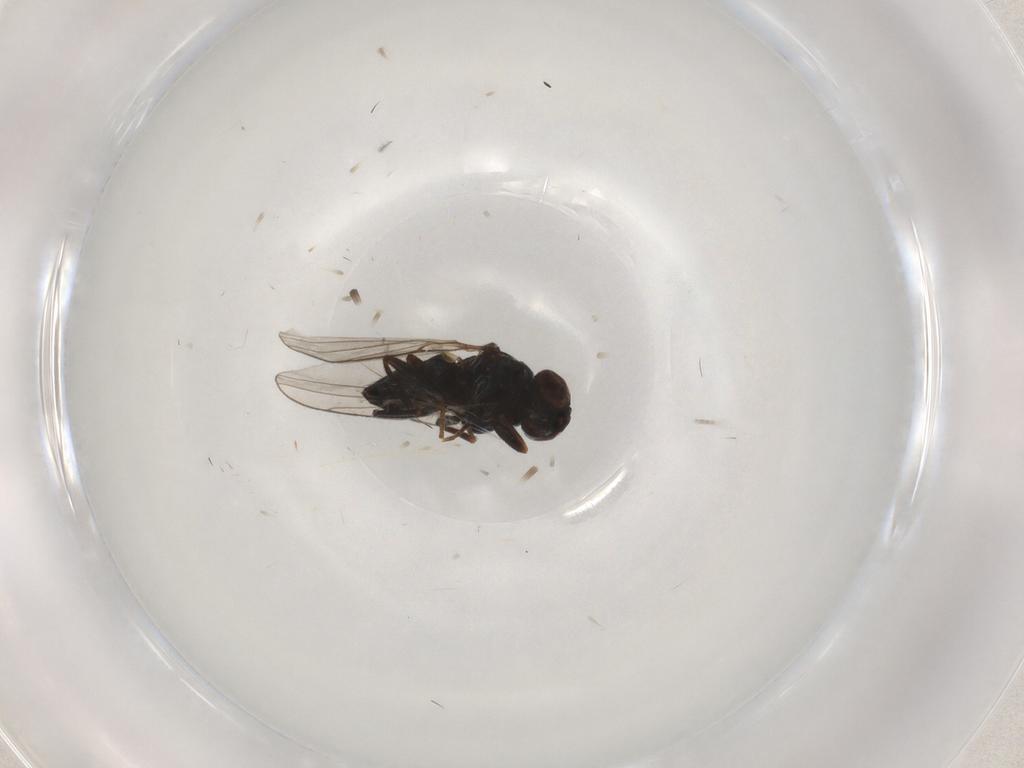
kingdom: Animalia
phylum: Arthropoda
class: Insecta
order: Diptera
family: Chloropidae
